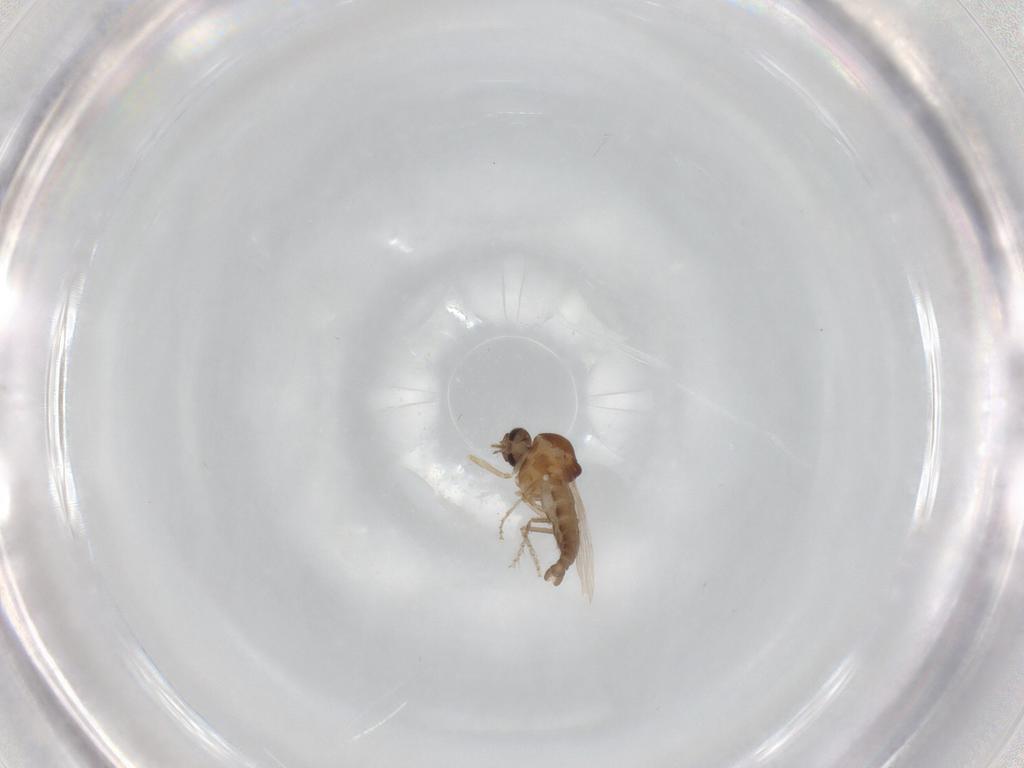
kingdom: Animalia
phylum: Arthropoda
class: Insecta
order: Diptera
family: Ceratopogonidae
